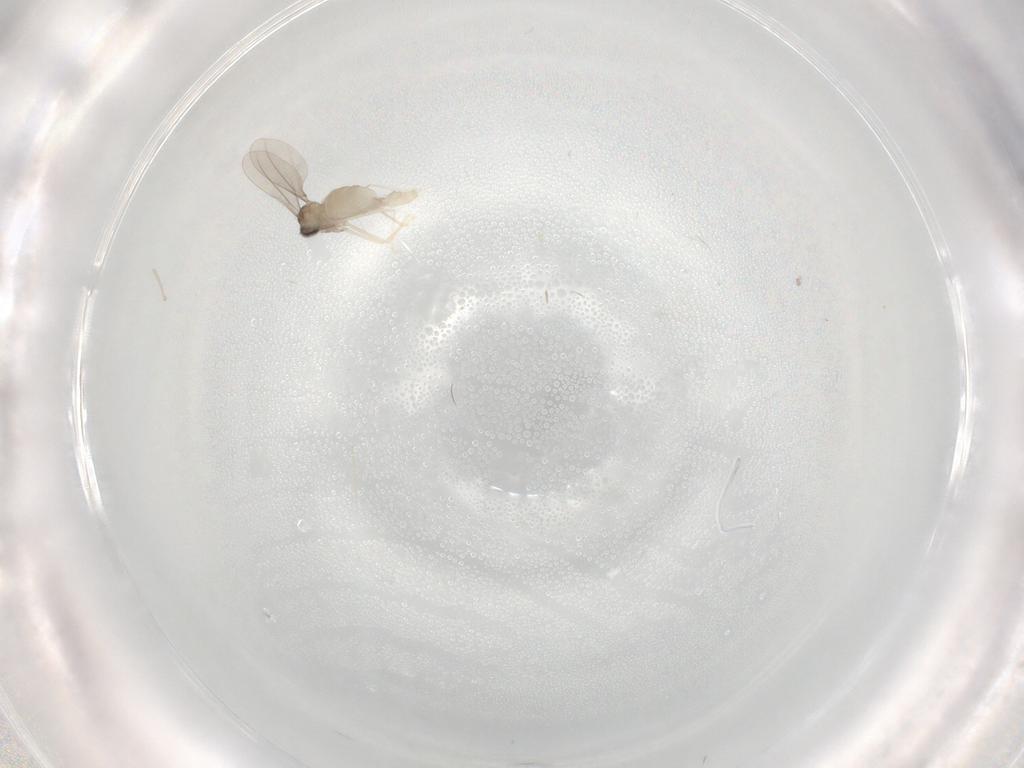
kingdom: Animalia
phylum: Arthropoda
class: Insecta
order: Diptera
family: Cecidomyiidae
